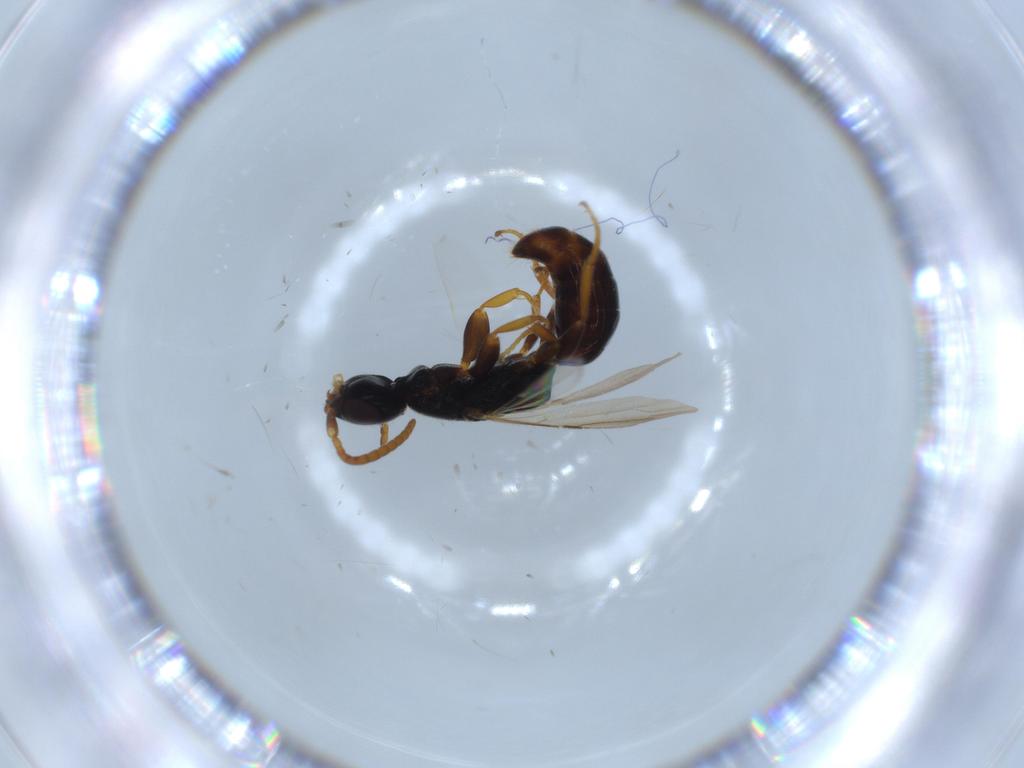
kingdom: Animalia
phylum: Arthropoda
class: Insecta
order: Hymenoptera
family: Bethylidae
